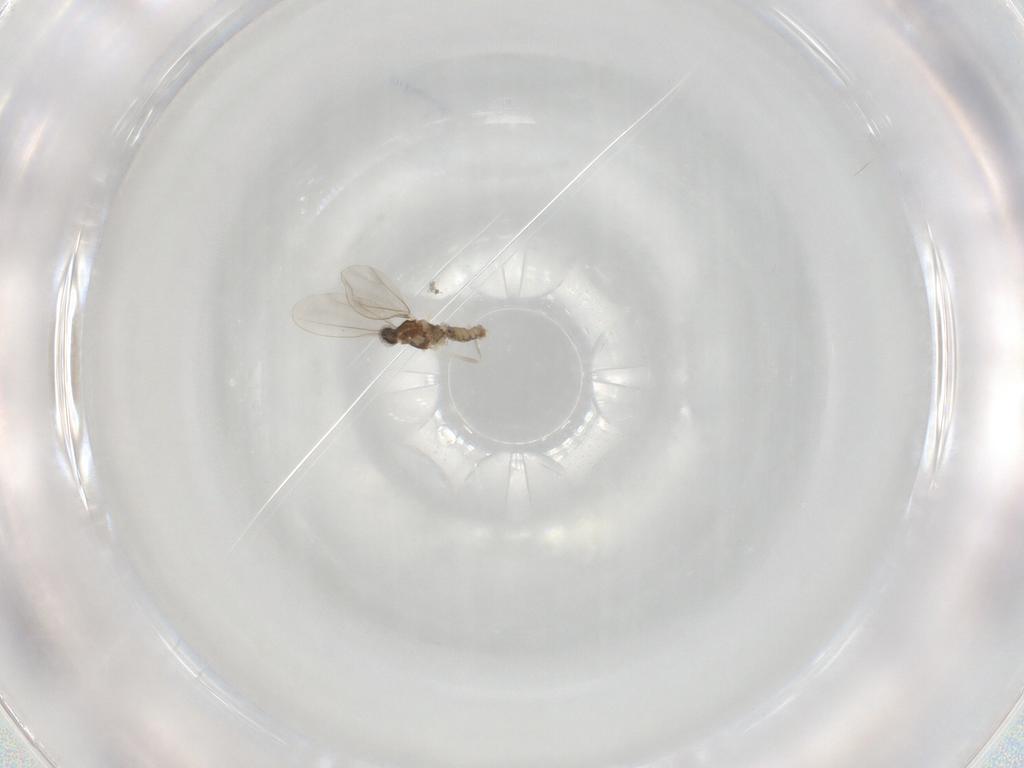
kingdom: Animalia
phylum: Arthropoda
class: Insecta
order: Diptera
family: Cecidomyiidae
